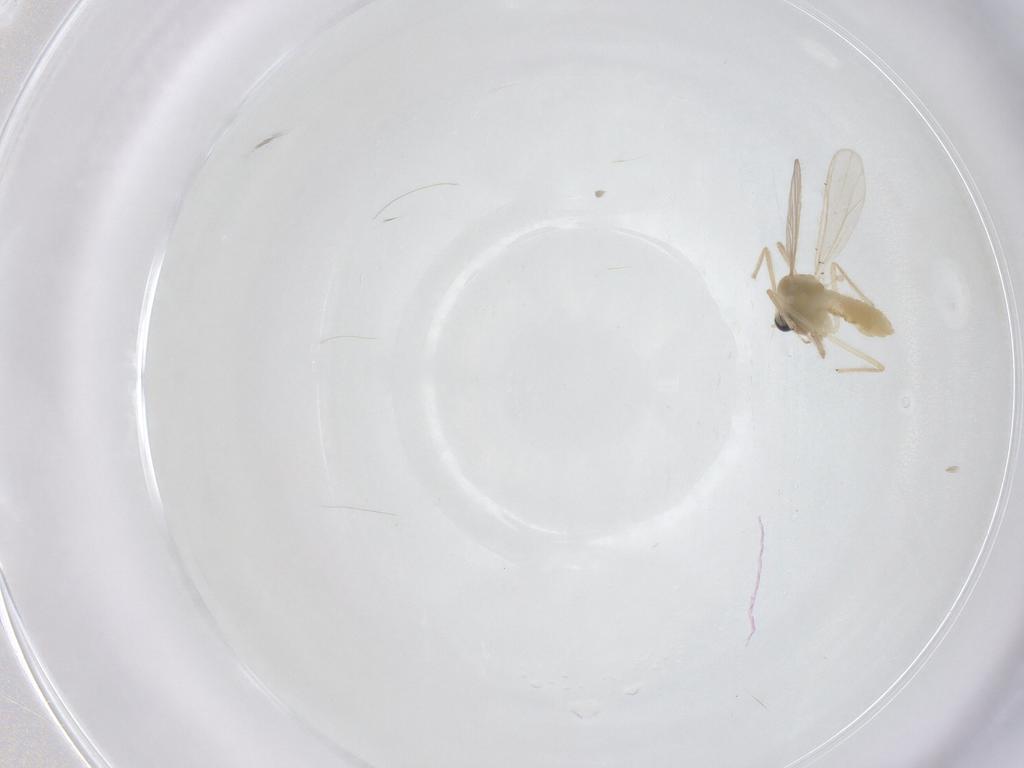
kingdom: Animalia
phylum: Arthropoda
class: Insecta
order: Diptera
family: Chironomidae
